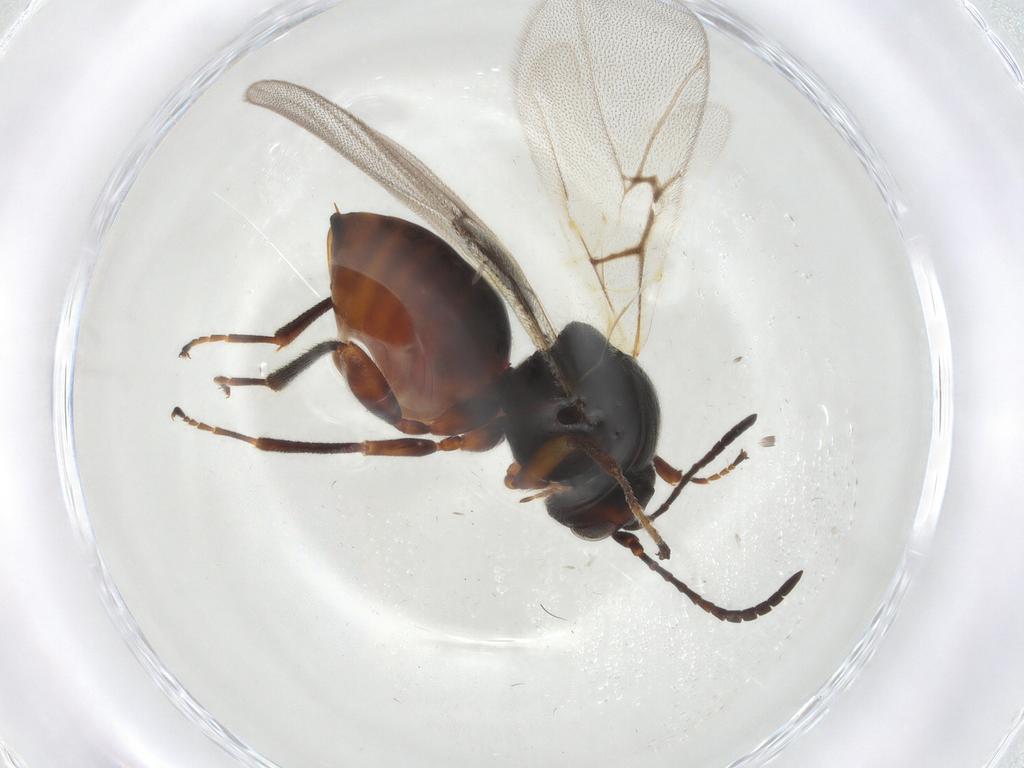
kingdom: Animalia
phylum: Arthropoda
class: Insecta
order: Hymenoptera
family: Cynipidae
